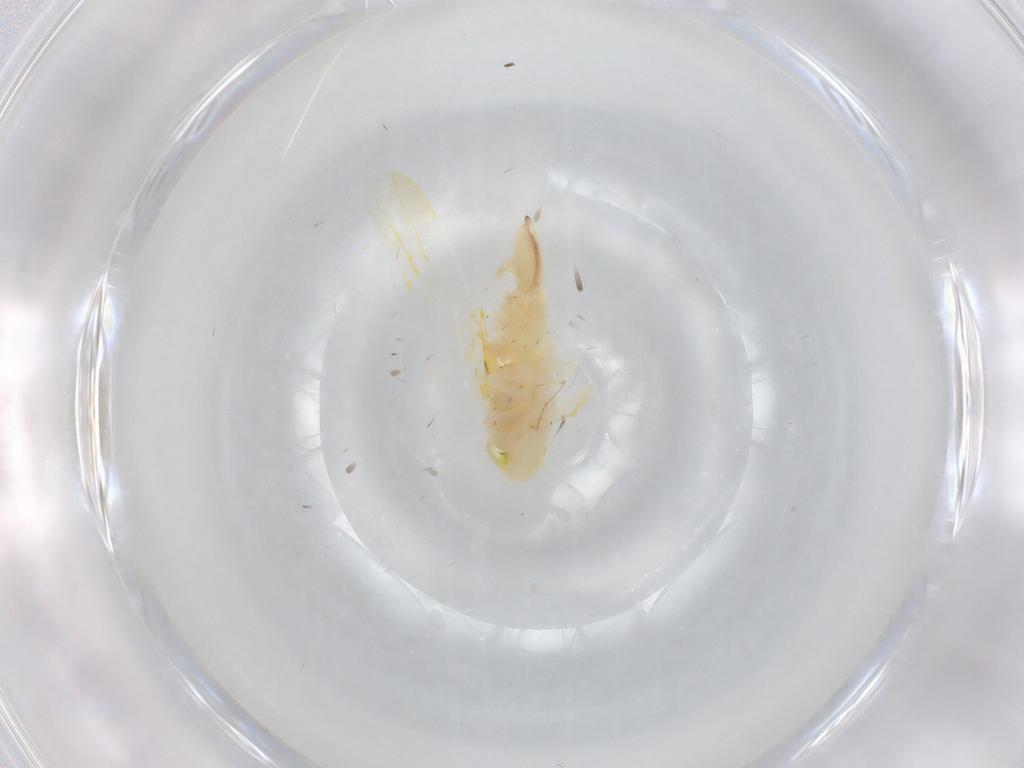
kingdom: Animalia
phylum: Arthropoda
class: Insecta
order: Hemiptera
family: Cicadellidae
